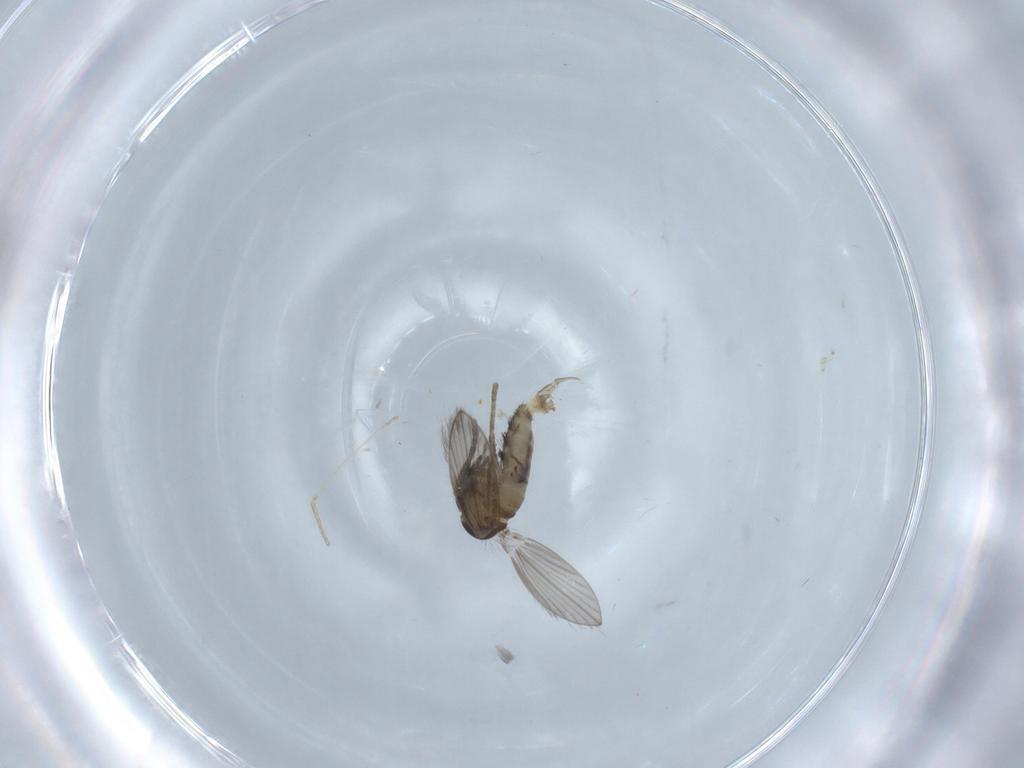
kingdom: Animalia
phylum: Arthropoda
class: Insecta
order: Diptera
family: Psychodidae
